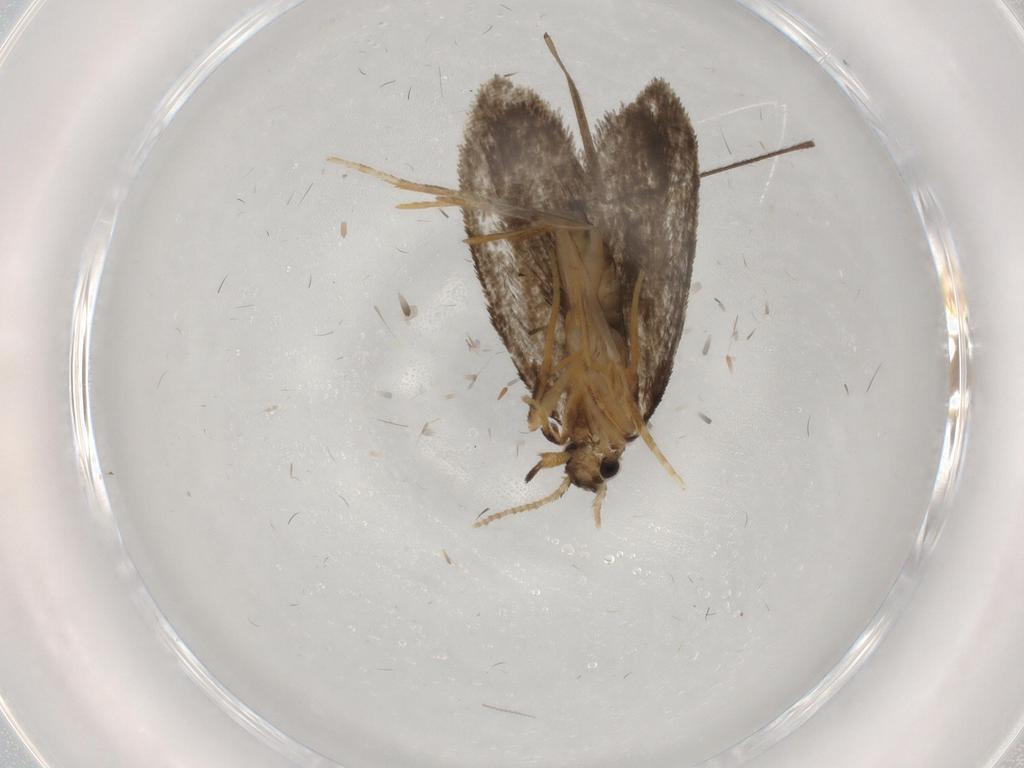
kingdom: Animalia
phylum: Arthropoda
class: Insecta
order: Lepidoptera
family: Psychidae
